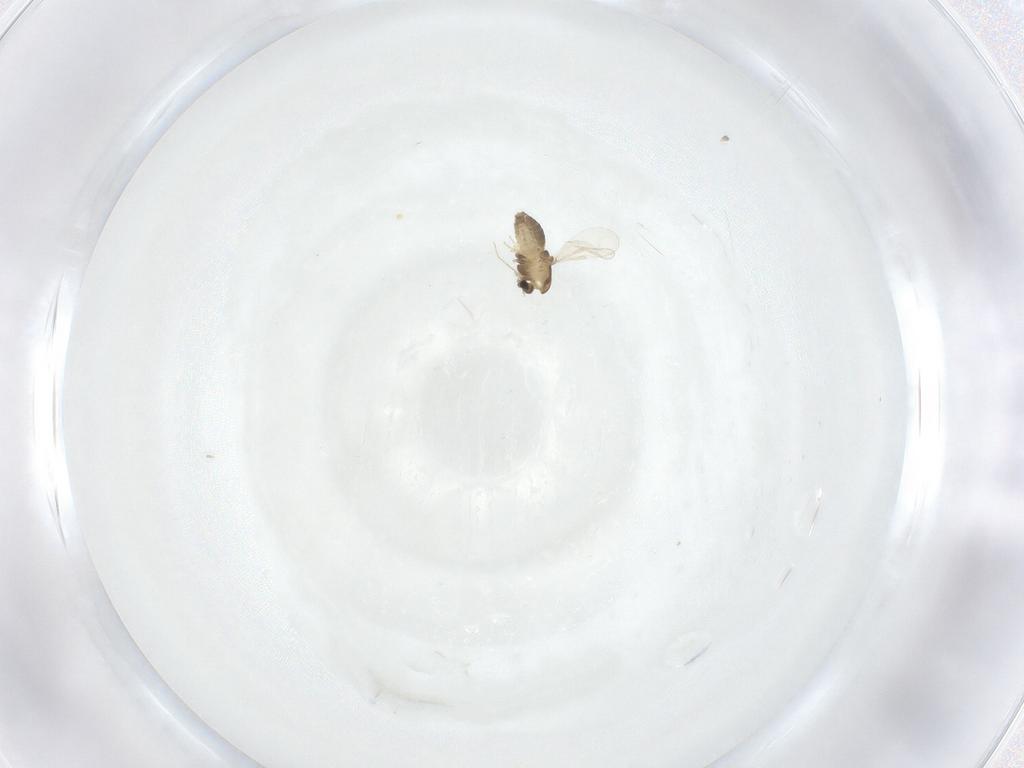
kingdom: Animalia
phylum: Arthropoda
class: Insecta
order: Diptera
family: Chironomidae
